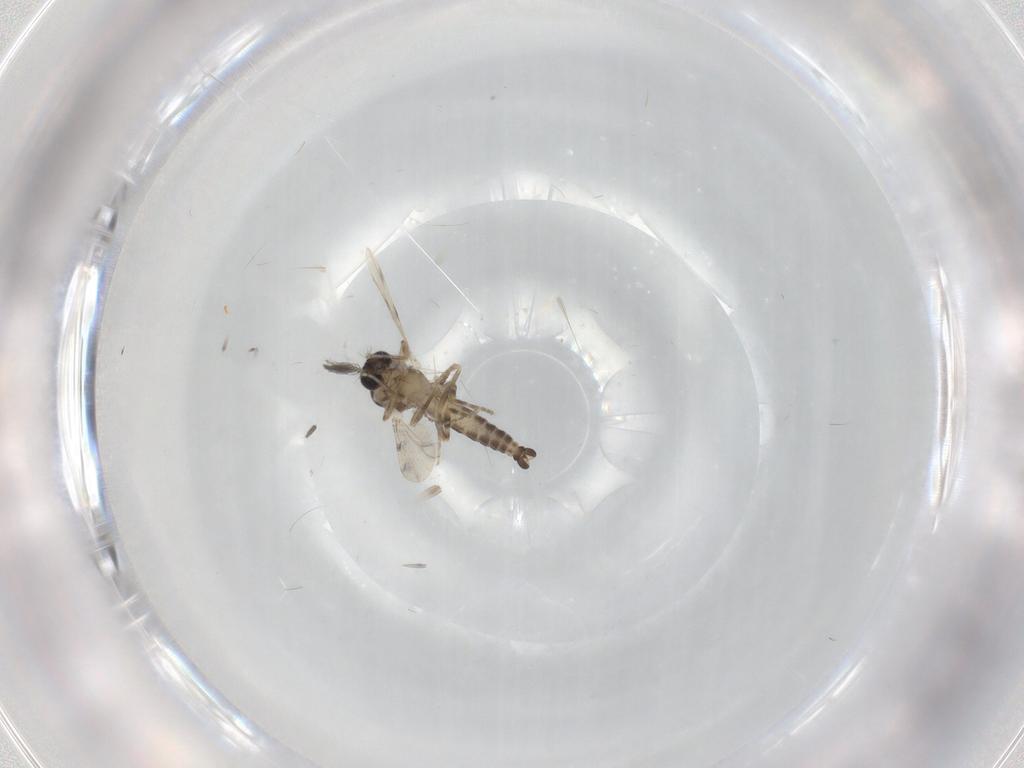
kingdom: Animalia
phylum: Arthropoda
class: Insecta
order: Diptera
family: Ceratopogonidae
